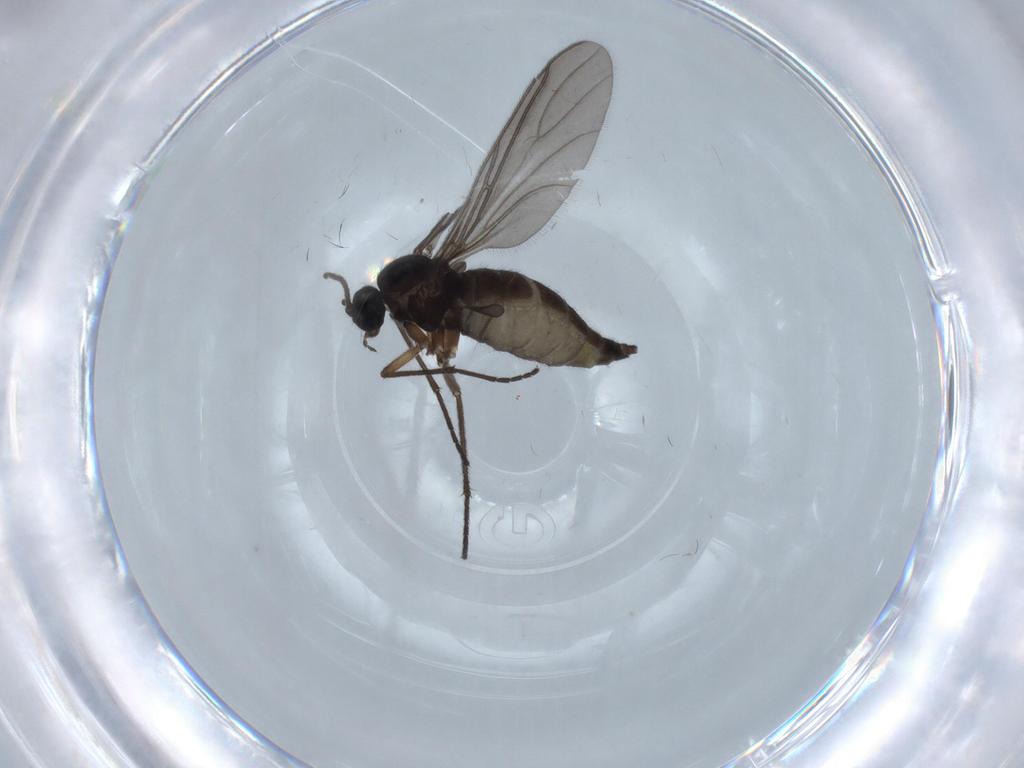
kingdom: Animalia
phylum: Arthropoda
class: Insecta
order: Diptera
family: Sciaridae
